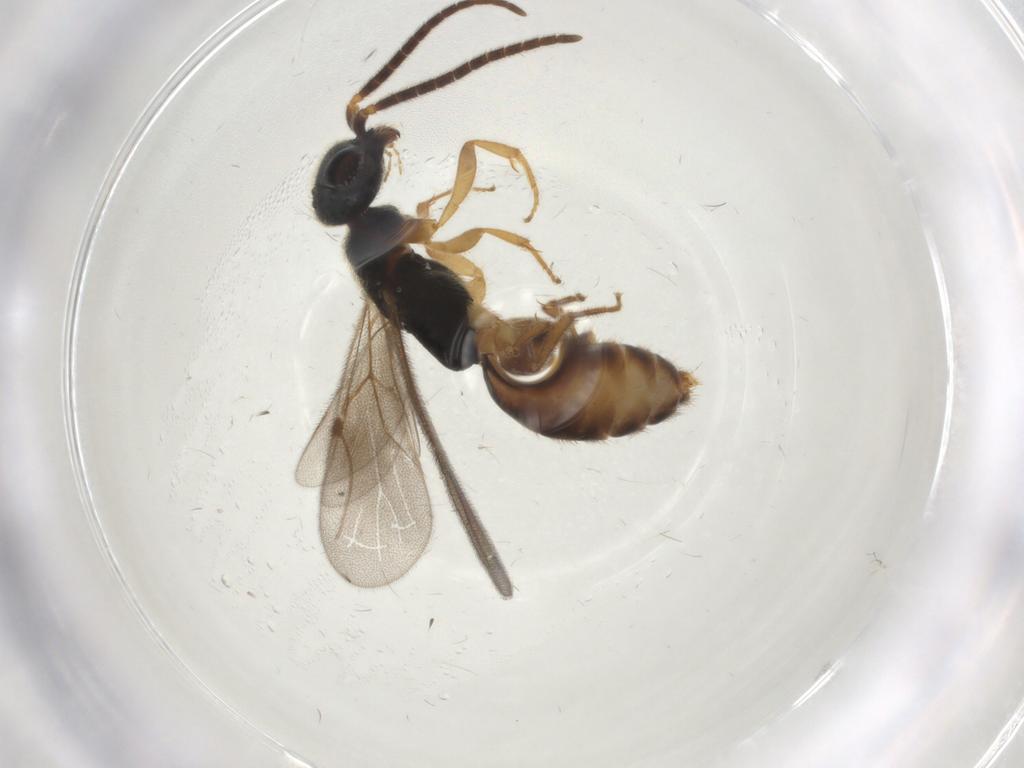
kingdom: Animalia
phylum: Arthropoda
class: Insecta
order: Hymenoptera
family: Bethylidae
